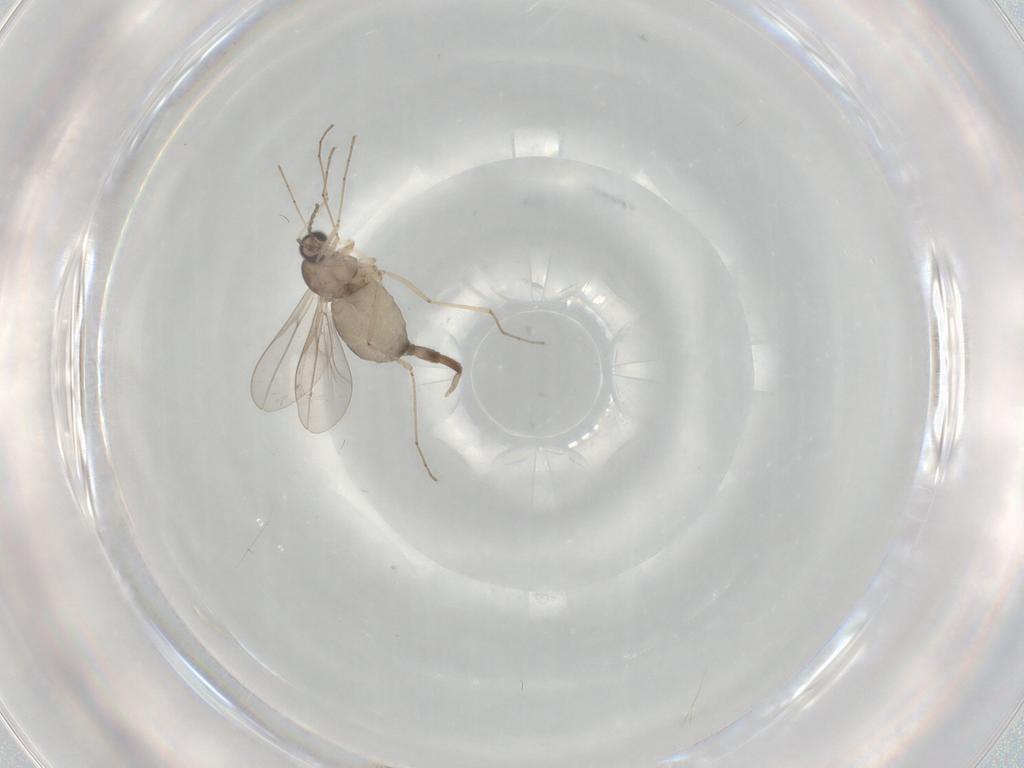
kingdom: Animalia
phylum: Arthropoda
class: Insecta
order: Diptera
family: Cecidomyiidae
